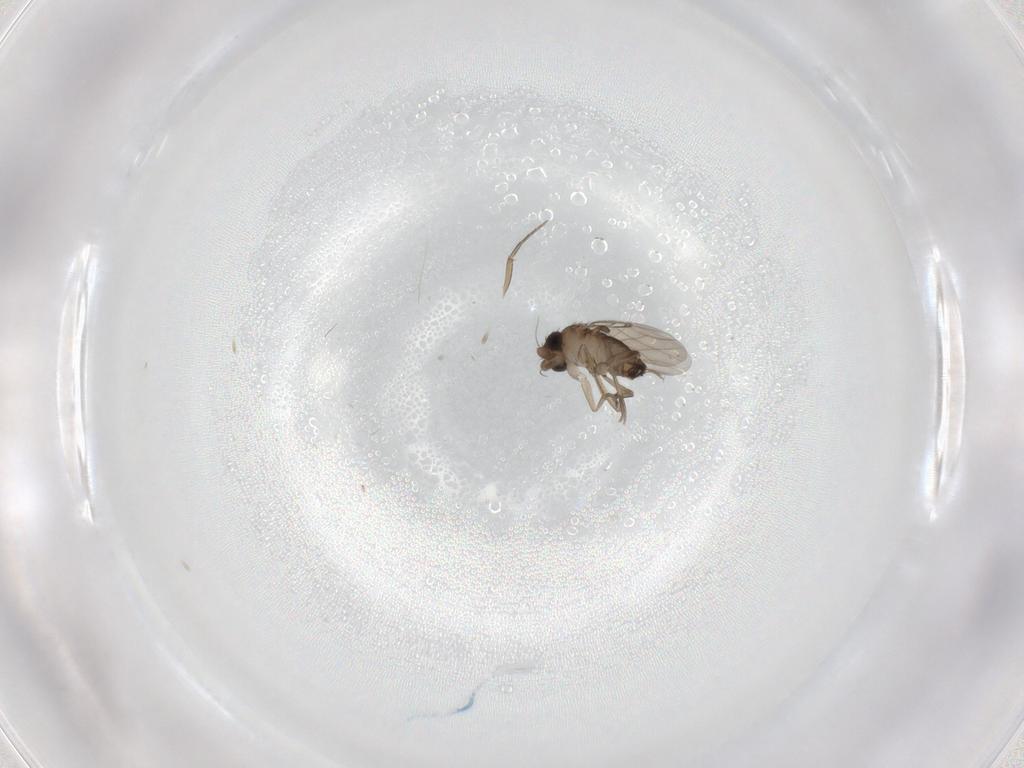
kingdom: Animalia
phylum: Arthropoda
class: Insecta
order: Diptera
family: Phoridae
